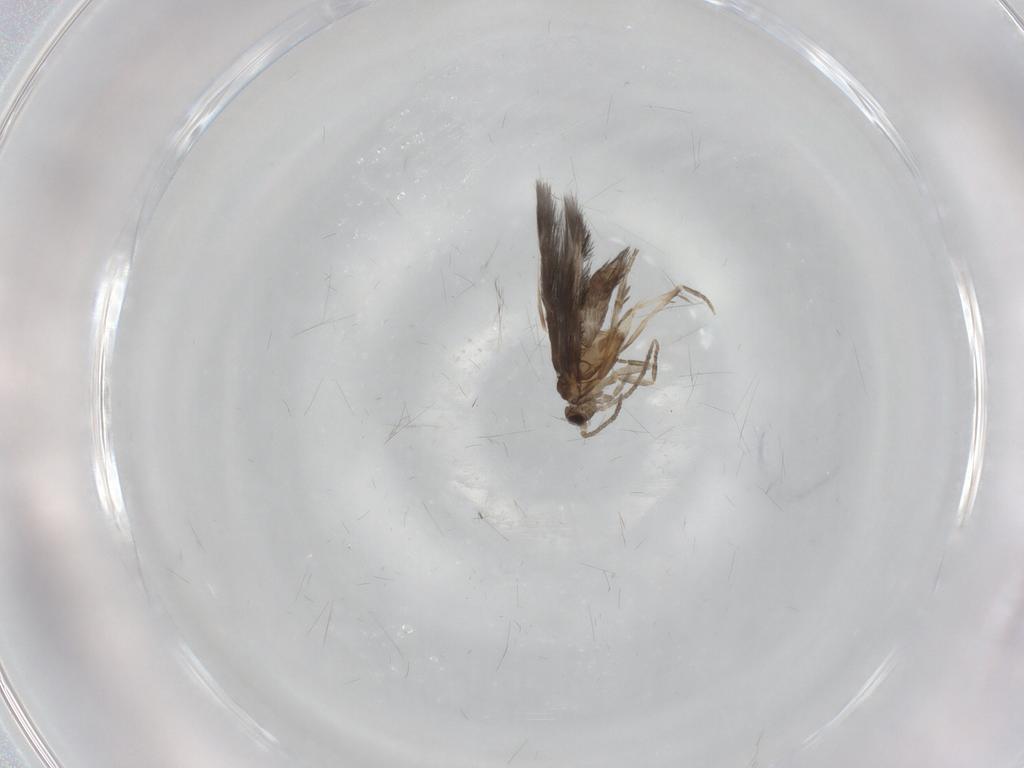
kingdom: Animalia
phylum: Arthropoda
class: Insecta
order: Trichoptera
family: Hydroptilidae
